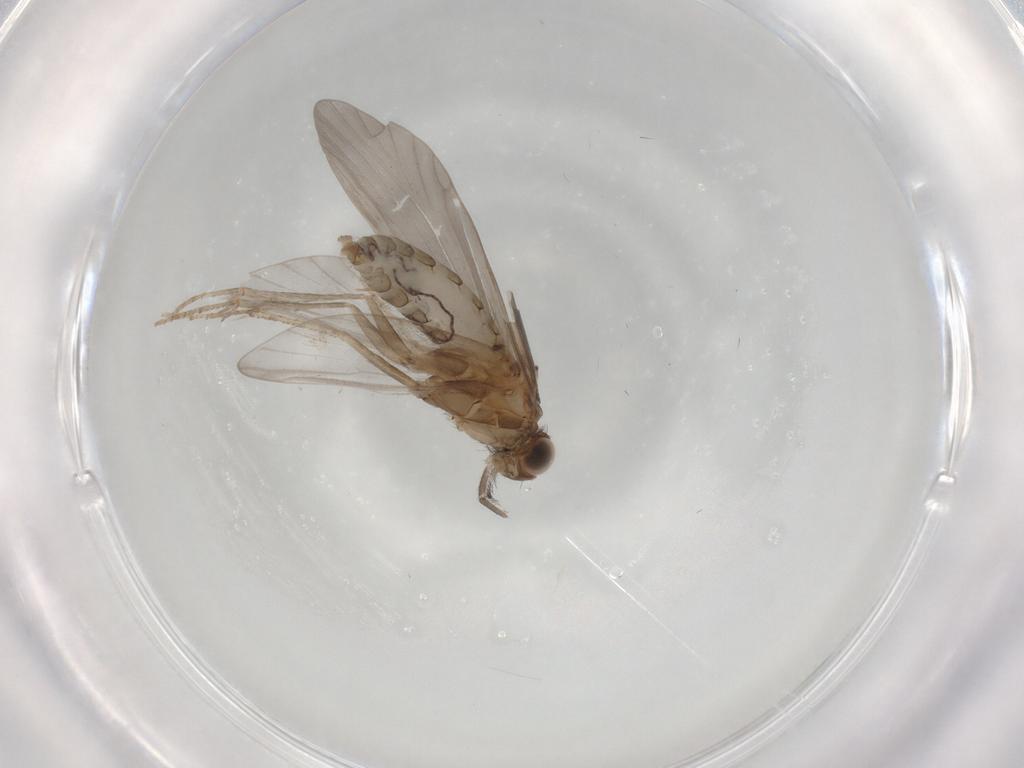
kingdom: Animalia
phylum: Arthropoda
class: Insecta
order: Trichoptera
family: Helicopsychidae
